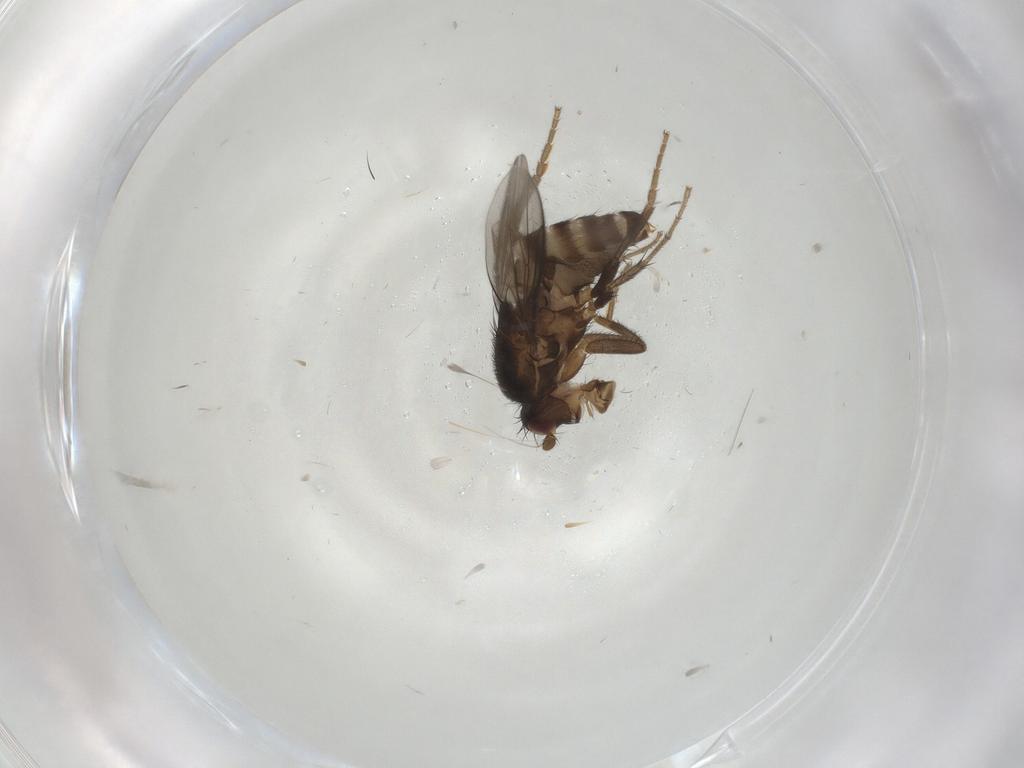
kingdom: Animalia
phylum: Arthropoda
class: Insecta
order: Diptera
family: Sphaeroceridae
